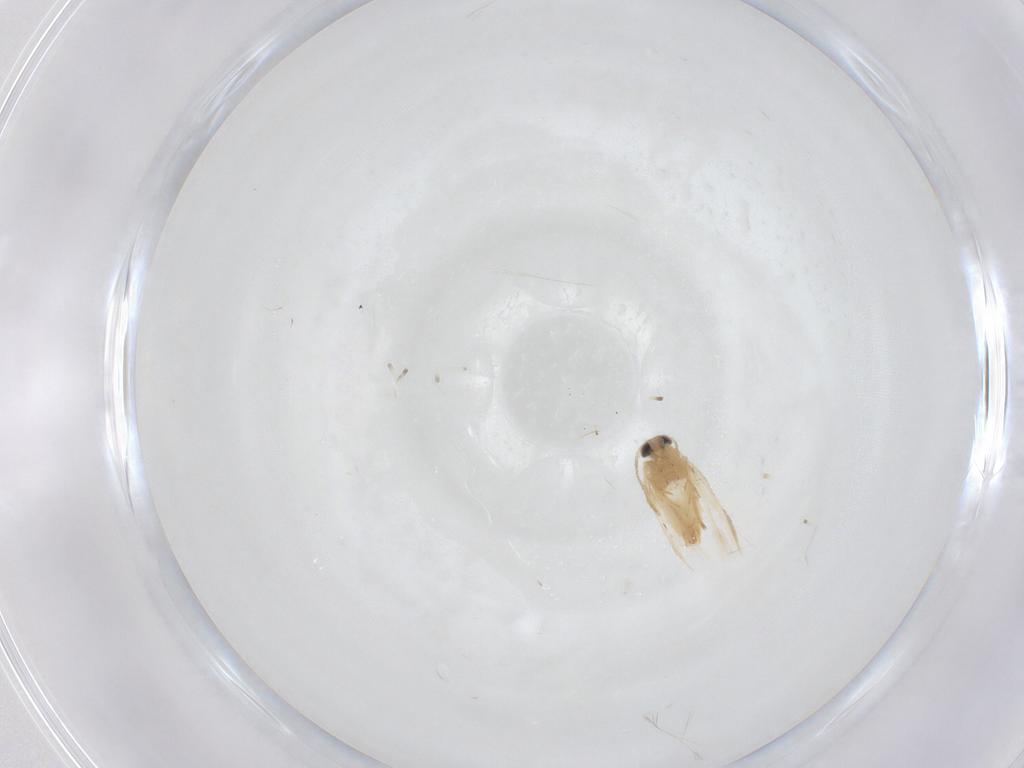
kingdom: Animalia
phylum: Arthropoda
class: Insecta
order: Lepidoptera
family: Crambidae
